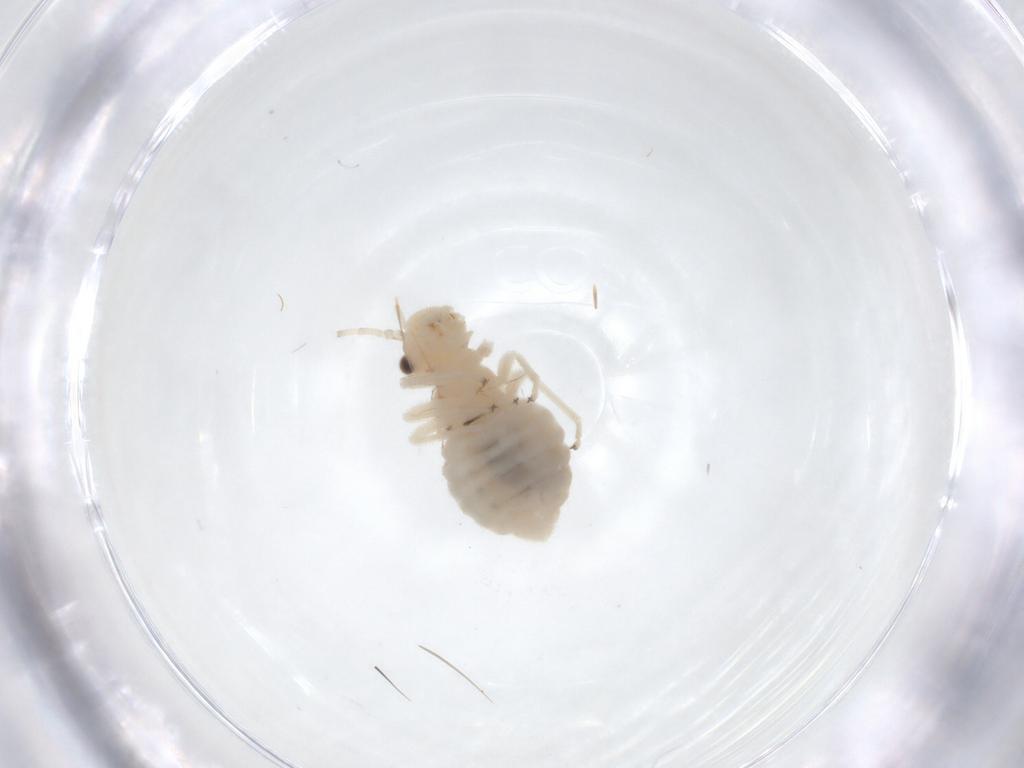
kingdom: Animalia
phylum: Arthropoda
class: Insecta
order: Psocodea
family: Amphipsocidae
